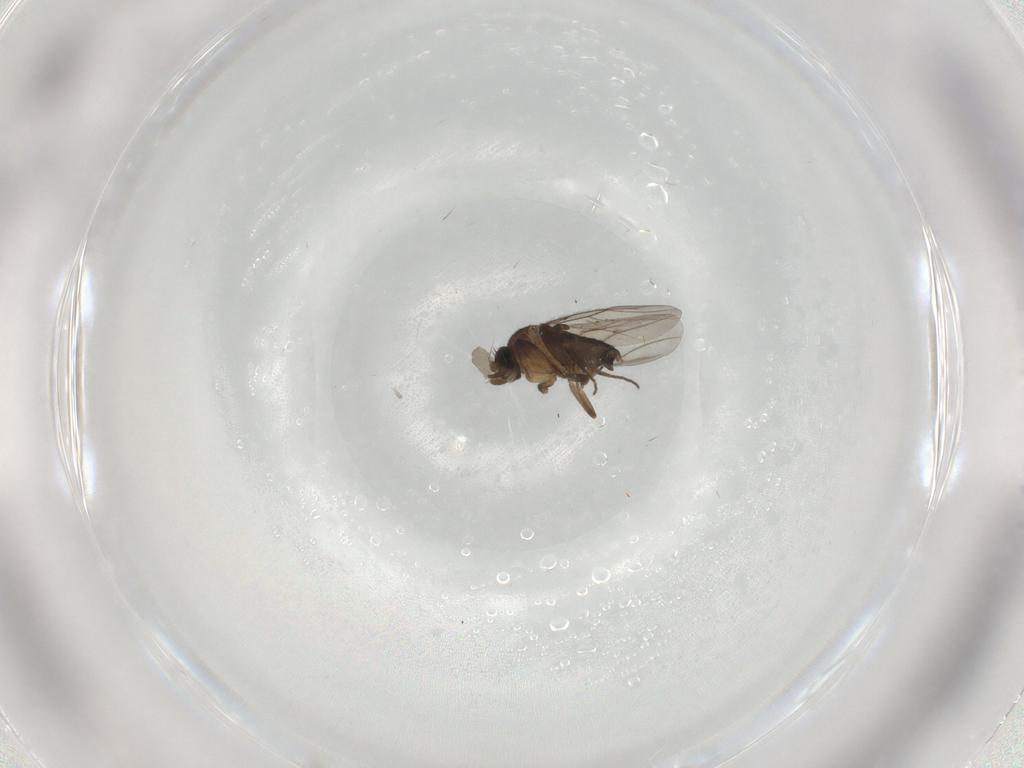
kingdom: Animalia
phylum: Arthropoda
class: Insecta
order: Diptera
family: Phoridae
